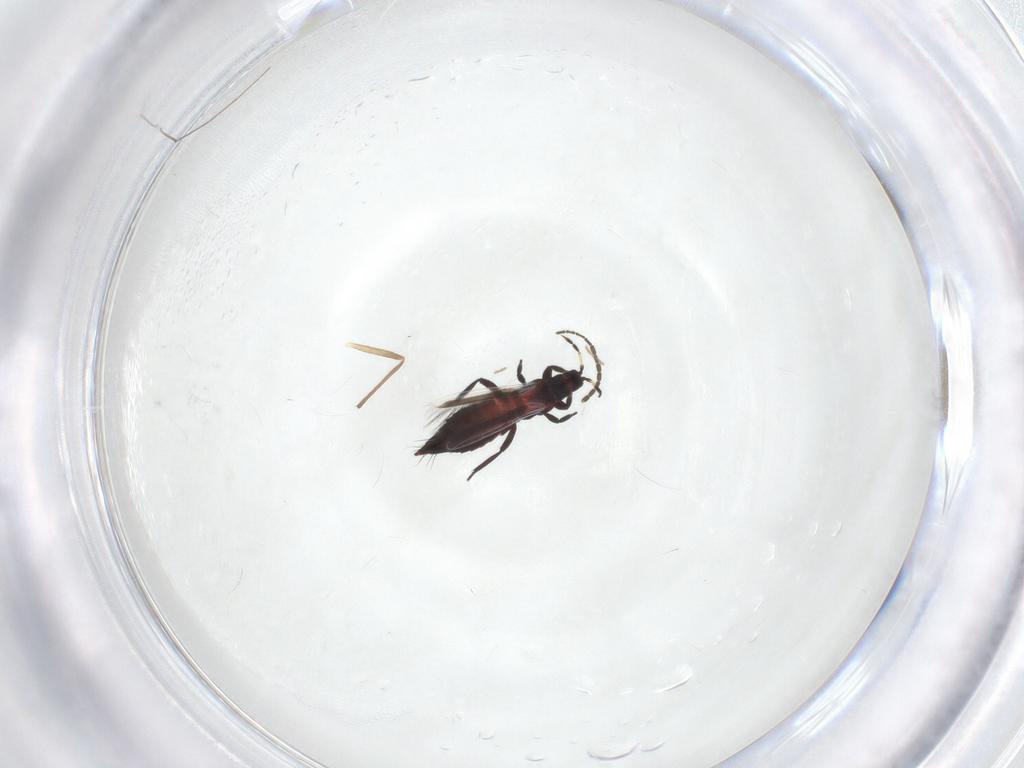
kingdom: Animalia
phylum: Arthropoda
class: Insecta
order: Thysanoptera
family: Aeolothripidae
